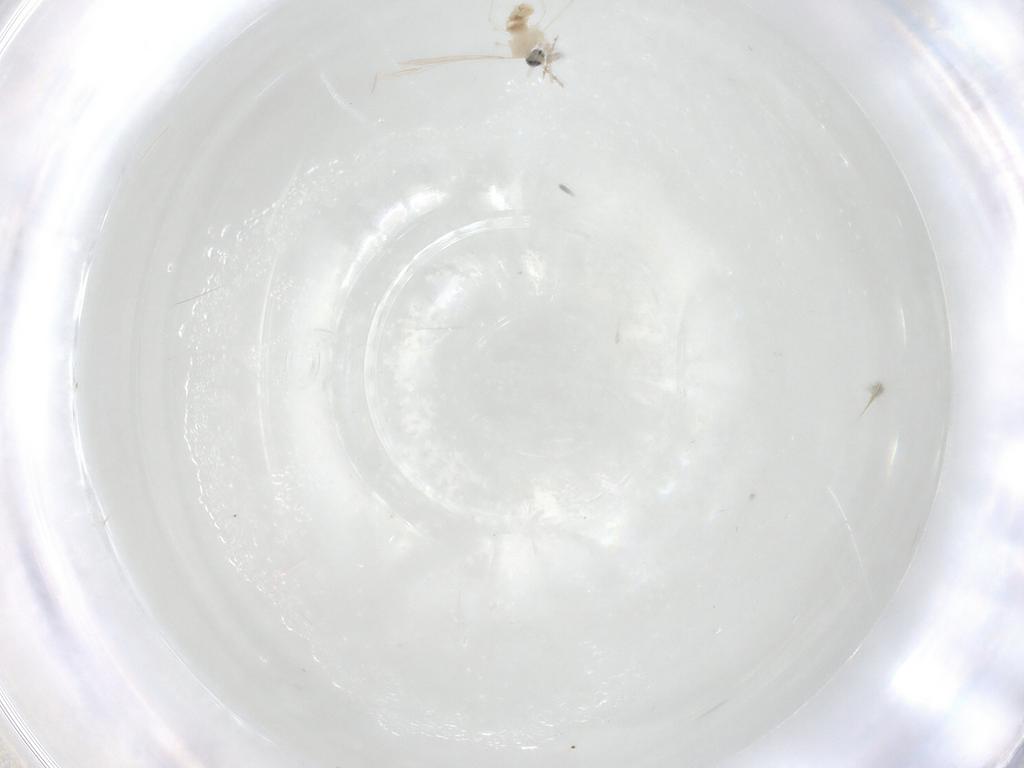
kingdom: Animalia
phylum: Arthropoda
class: Insecta
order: Diptera
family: Cecidomyiidae
